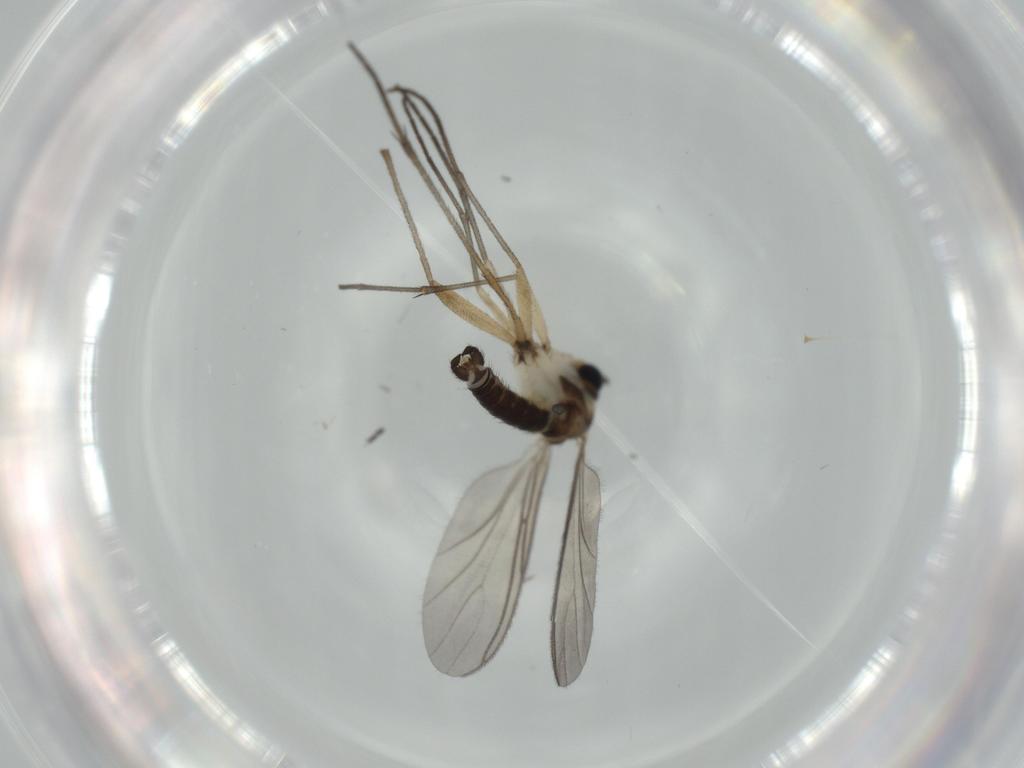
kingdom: Animalia
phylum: Arthropoda
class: Insecta
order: Diptera
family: Sciaridae
